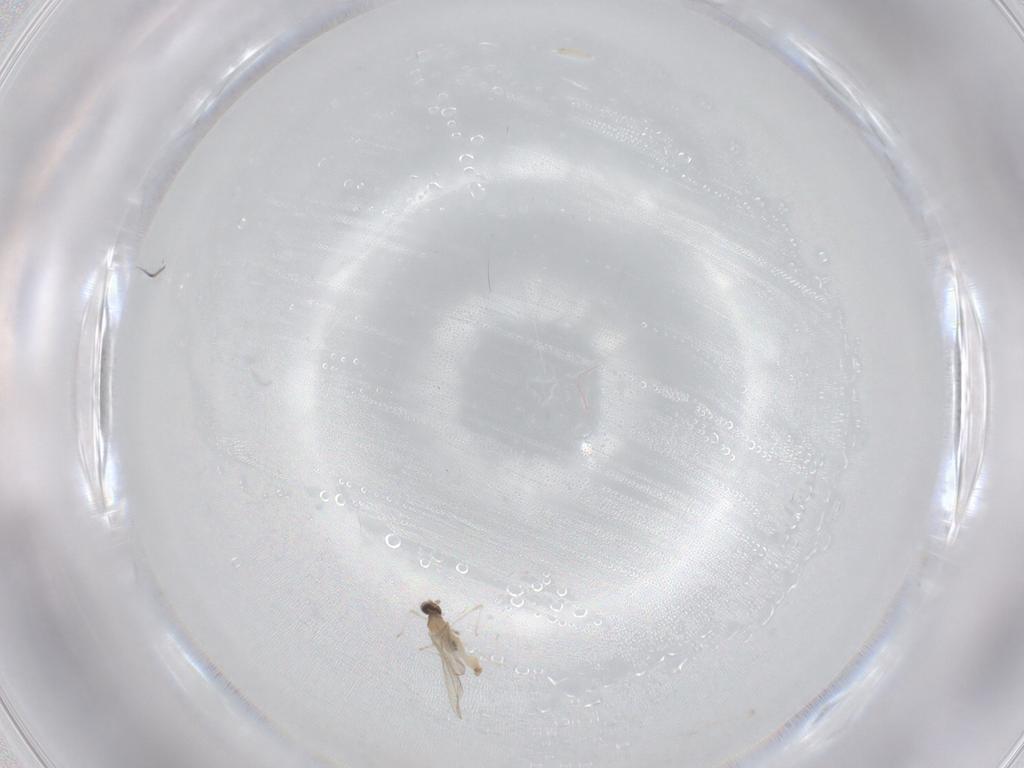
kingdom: Animalia
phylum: Arthropoda
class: Insecta
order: Diptera
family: Cecidomyiidae
